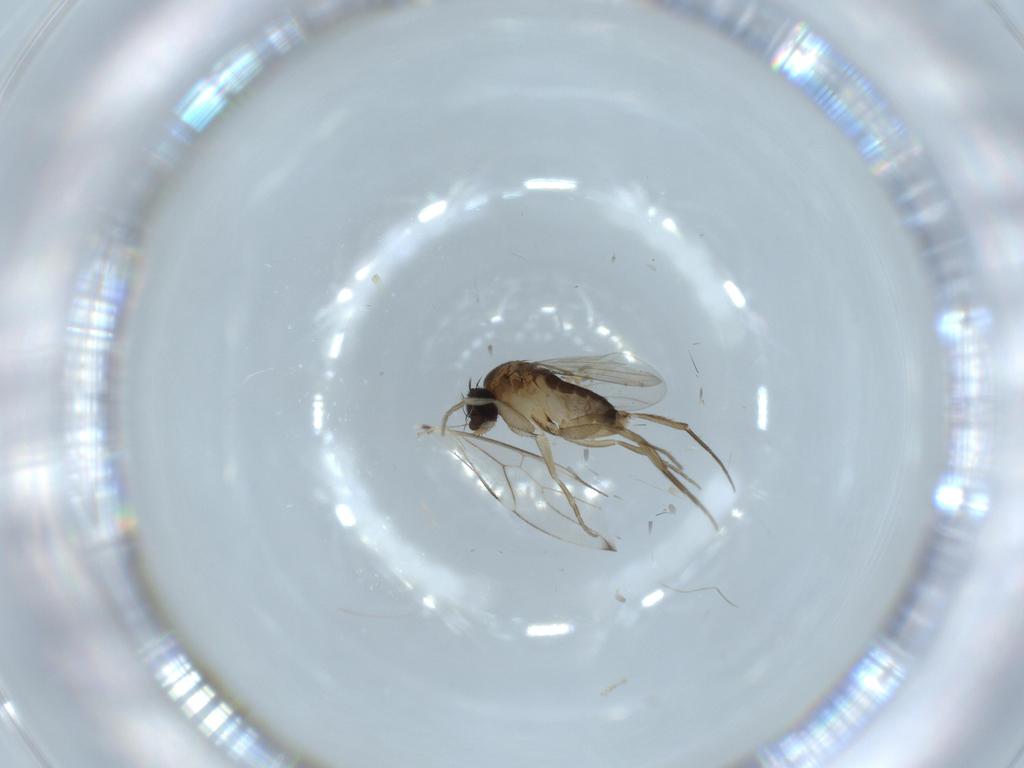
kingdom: Animalia
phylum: Arthropoda
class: Insecta
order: Diptera
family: Phoridae
